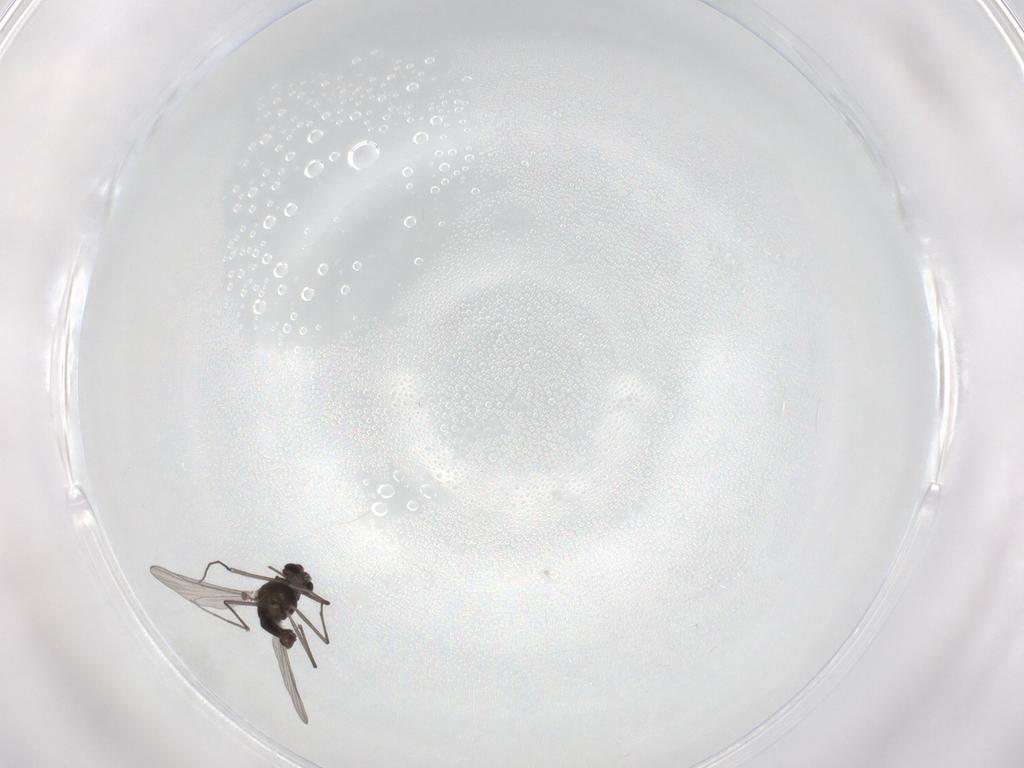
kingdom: Animalia
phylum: Arthropoda
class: Insecta
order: Diptera
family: Chironomidae
